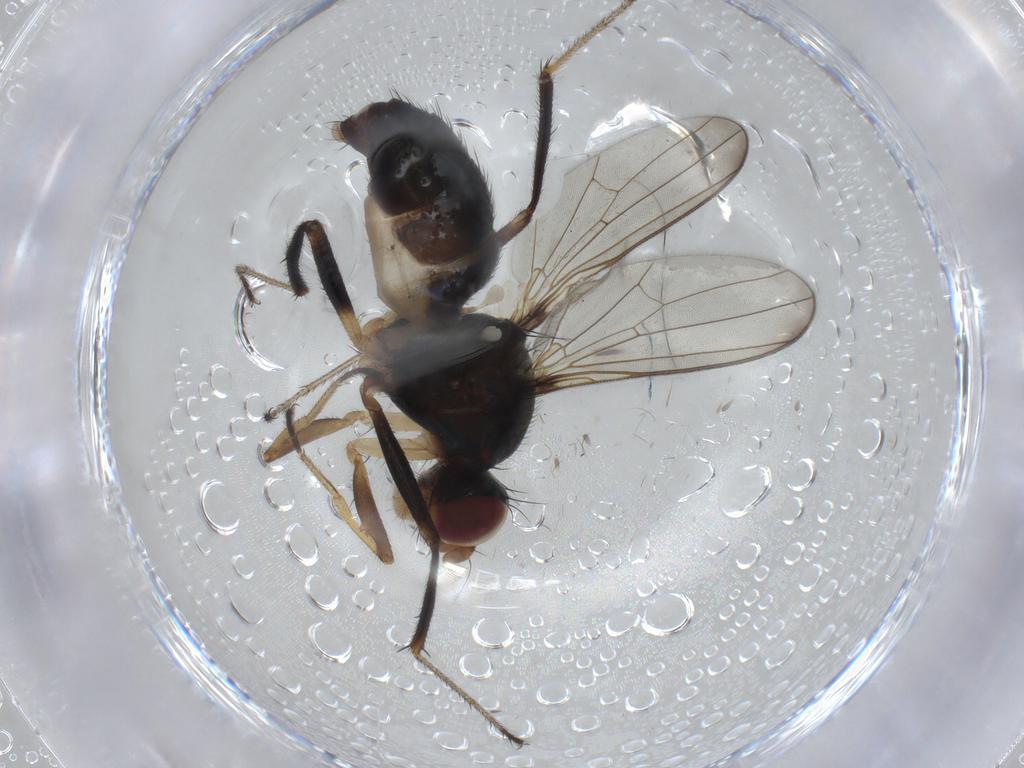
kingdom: Animalia
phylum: Arthropoda
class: Insecta
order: Diptera
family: Sepsidae
